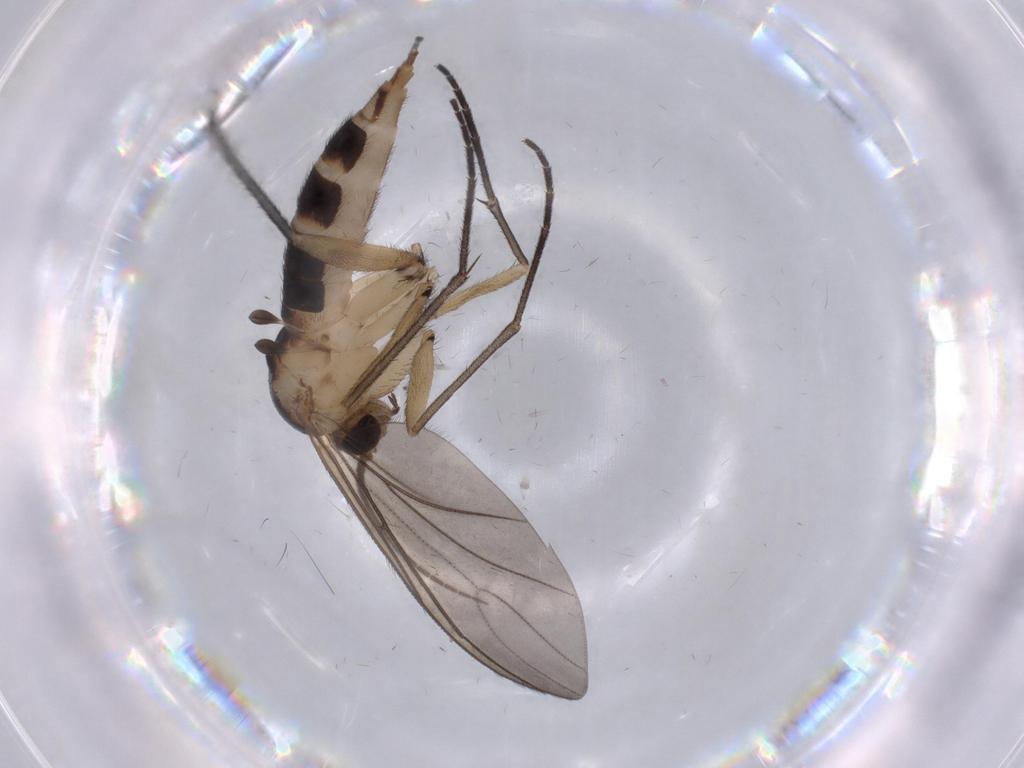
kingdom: Animalia
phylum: Arthropoda
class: Insecta
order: Diptera
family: Sciaridae
